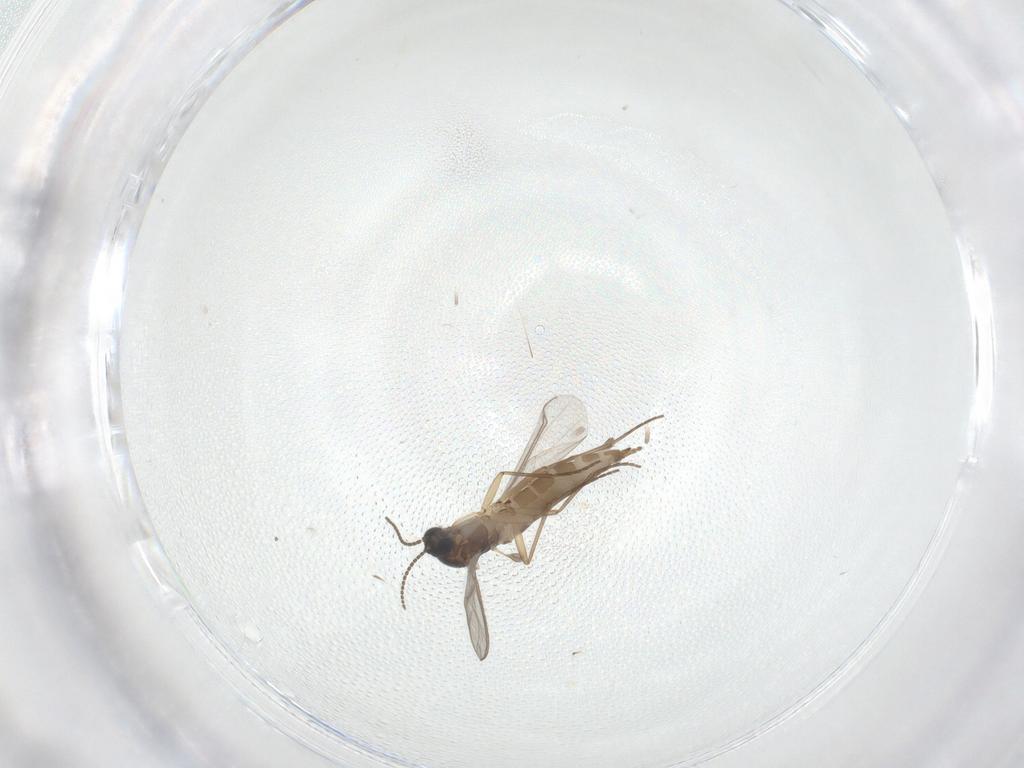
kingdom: Animalia
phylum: Arthropoda
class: Insecta
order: Diptera
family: Sciaridae
